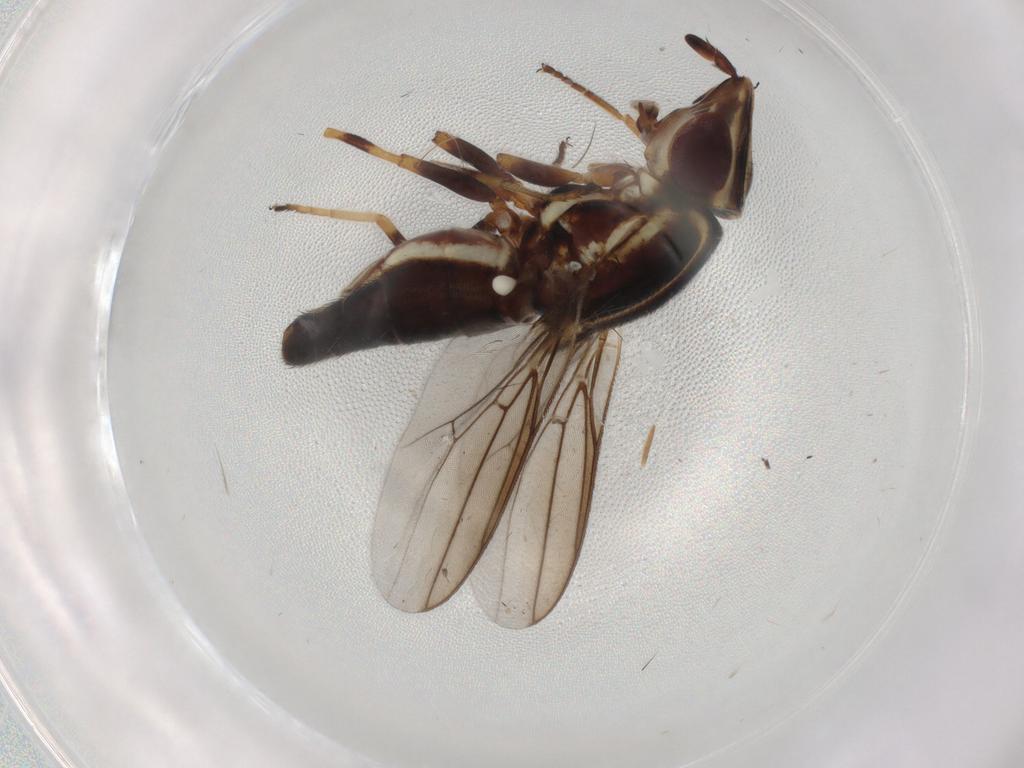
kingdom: Animalia
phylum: Arthropoda
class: Insecta
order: Diptera
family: Chloropidae
